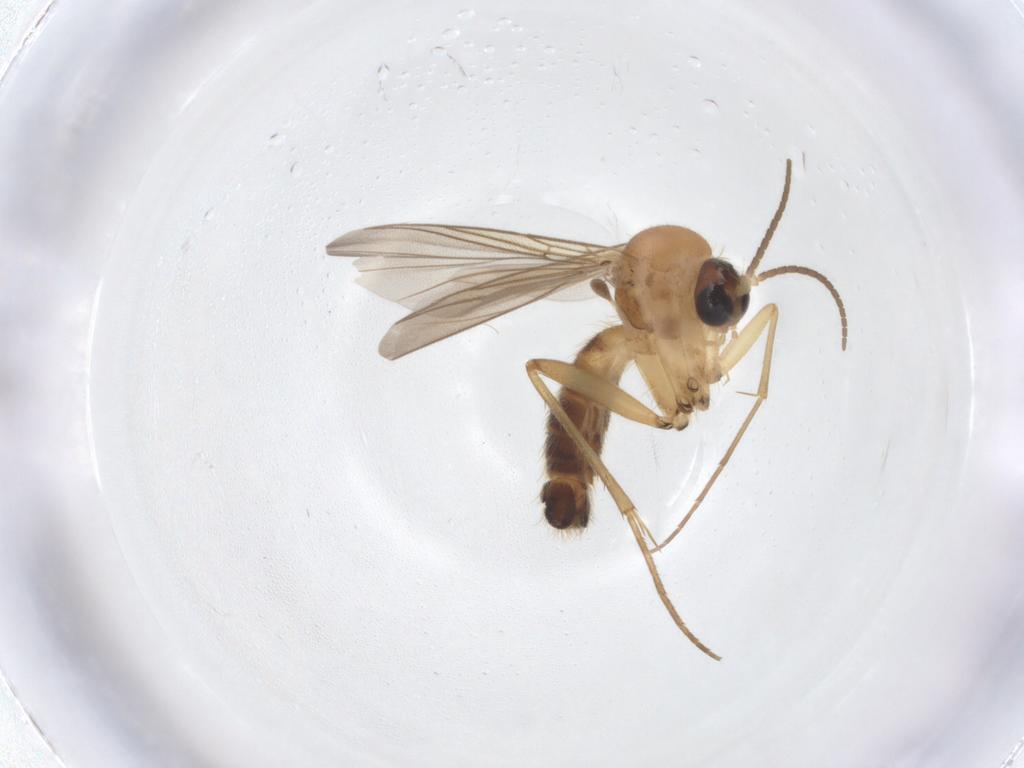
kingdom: Animalia
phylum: Arthropoda
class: Insecta
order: Diptera
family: Mycetophilidae
